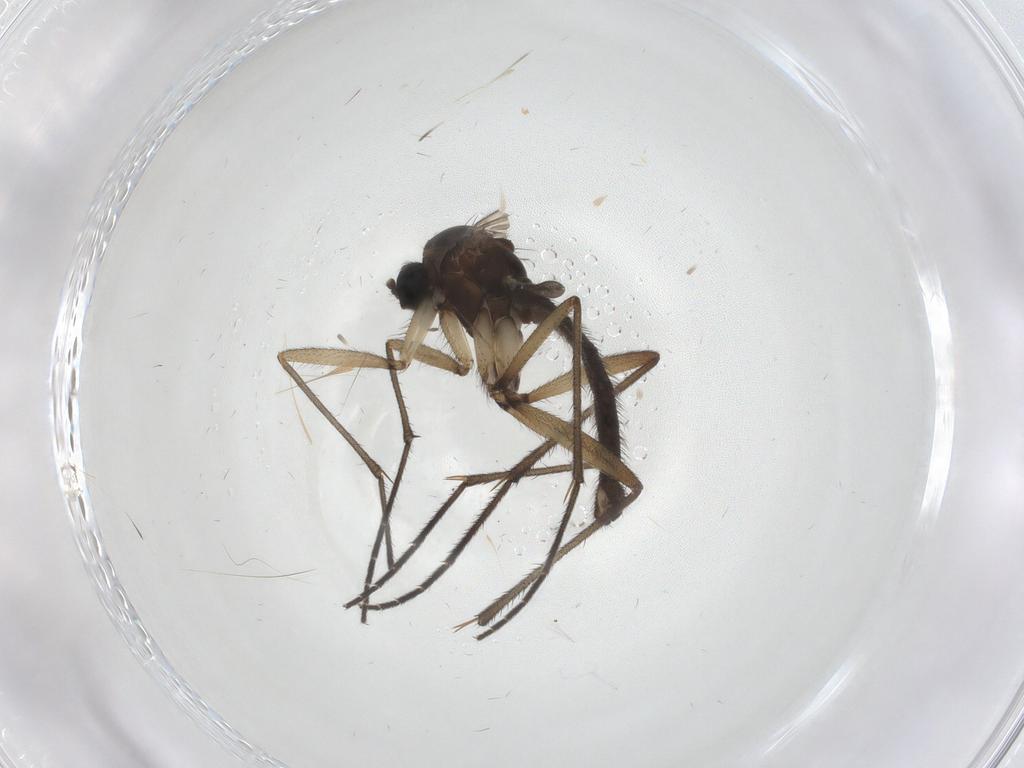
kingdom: Animalia
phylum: Arthropoda
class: Insecta
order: Diptera
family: Sciaridae
